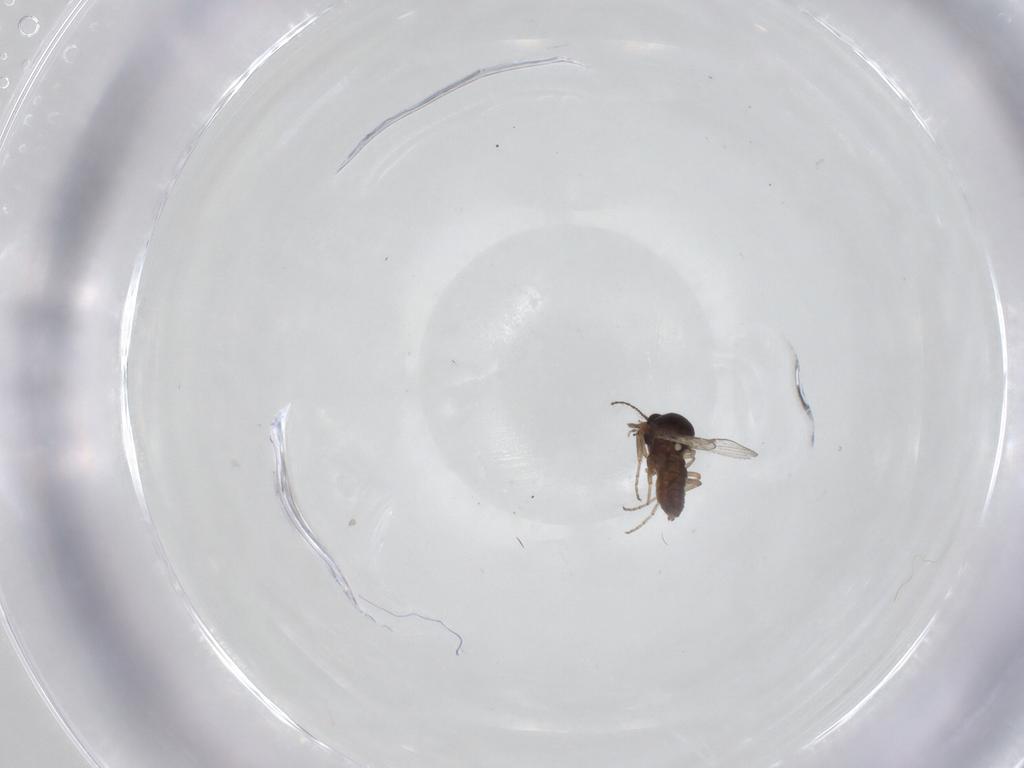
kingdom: Animalia
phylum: Arthropoda
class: Insecta
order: Diptera
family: Ceratopogonidae
